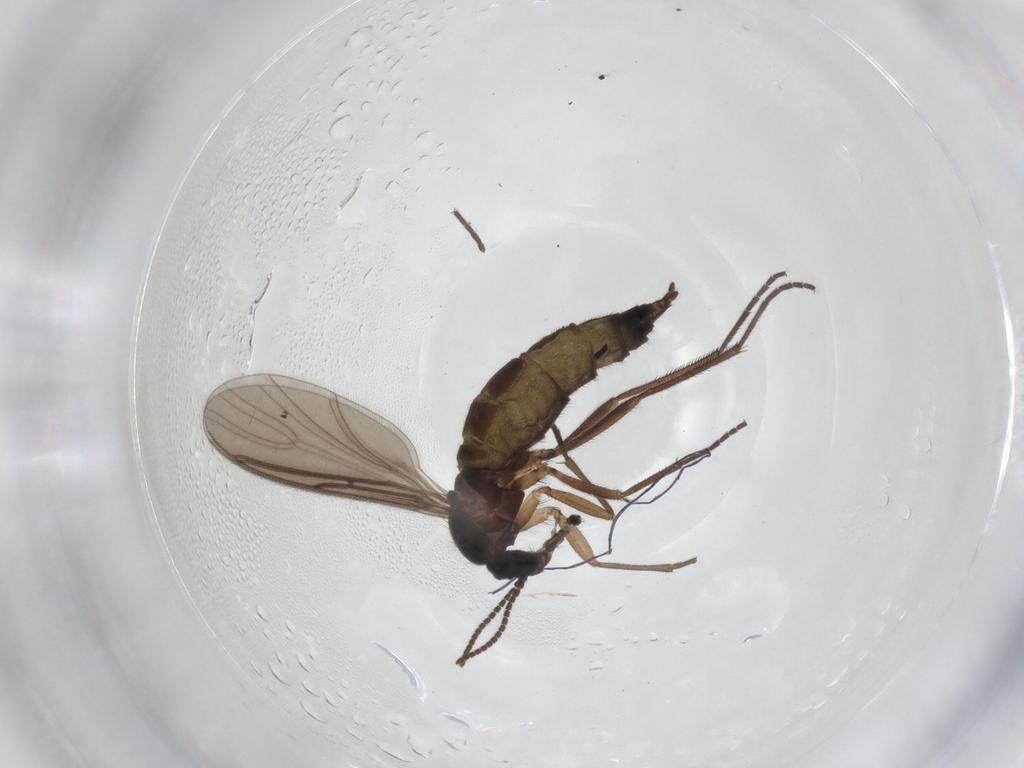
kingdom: Animalia
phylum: Arthropoda
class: Insecta
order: Diptera
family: Sciaridae
